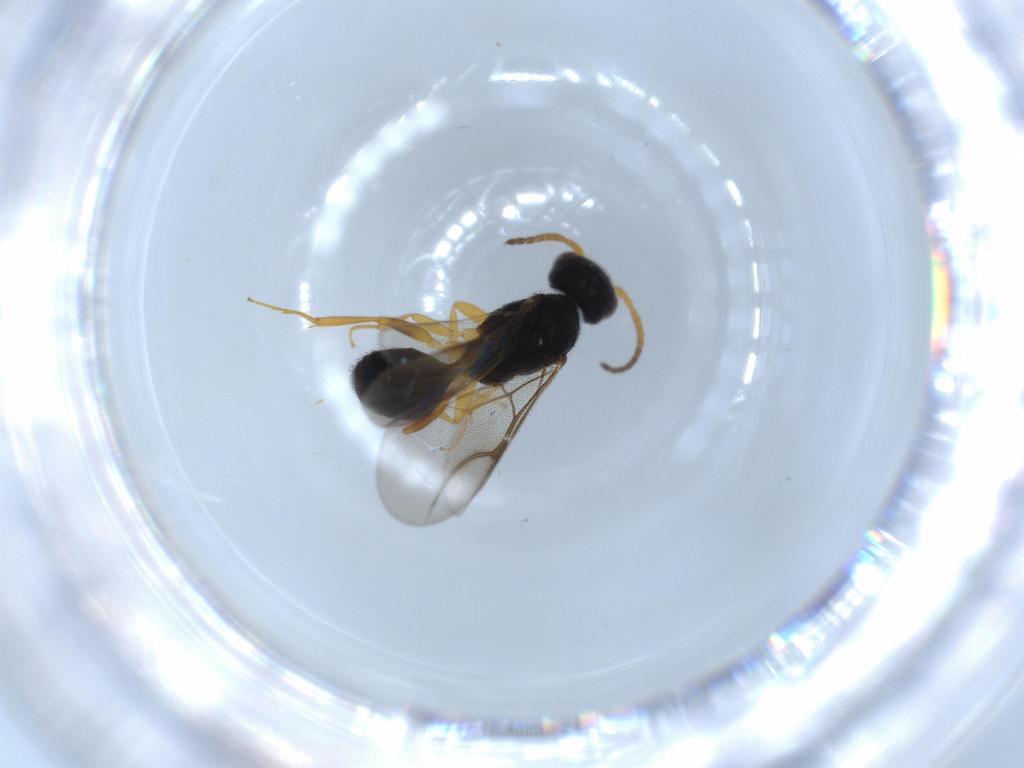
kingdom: Animalia
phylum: Arthropoda
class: Insecta
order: Hymenoptera
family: Bethylidae
